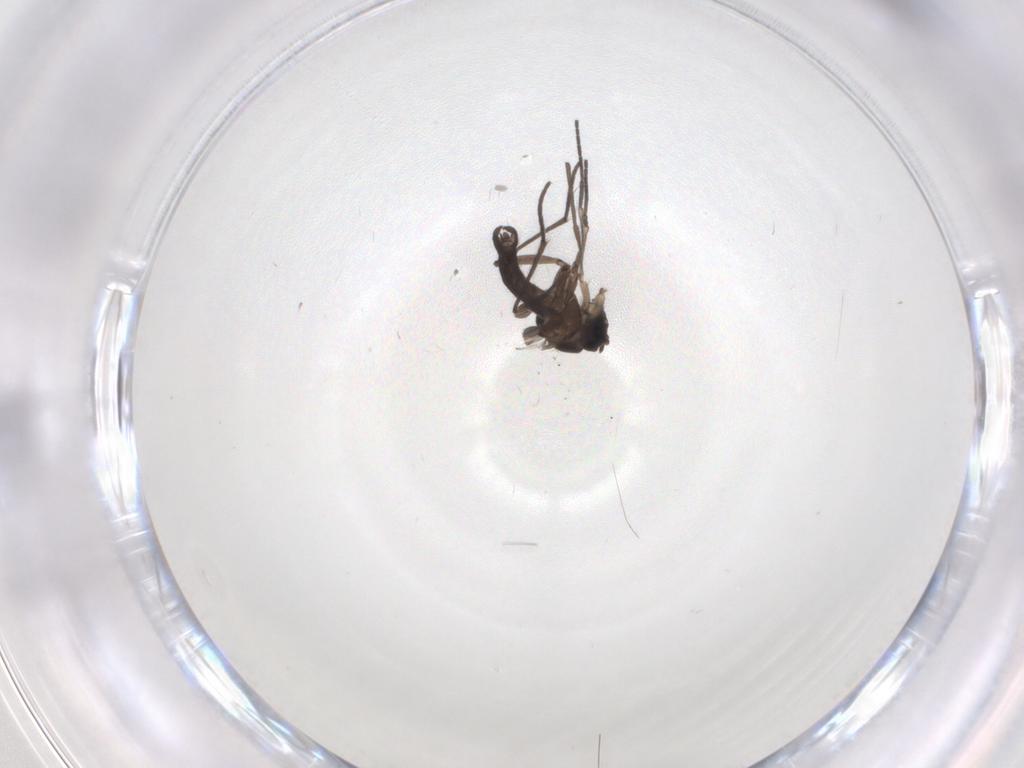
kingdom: Animalia
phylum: Arthropoda
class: Insecta
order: Diptera
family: Sciaridae
